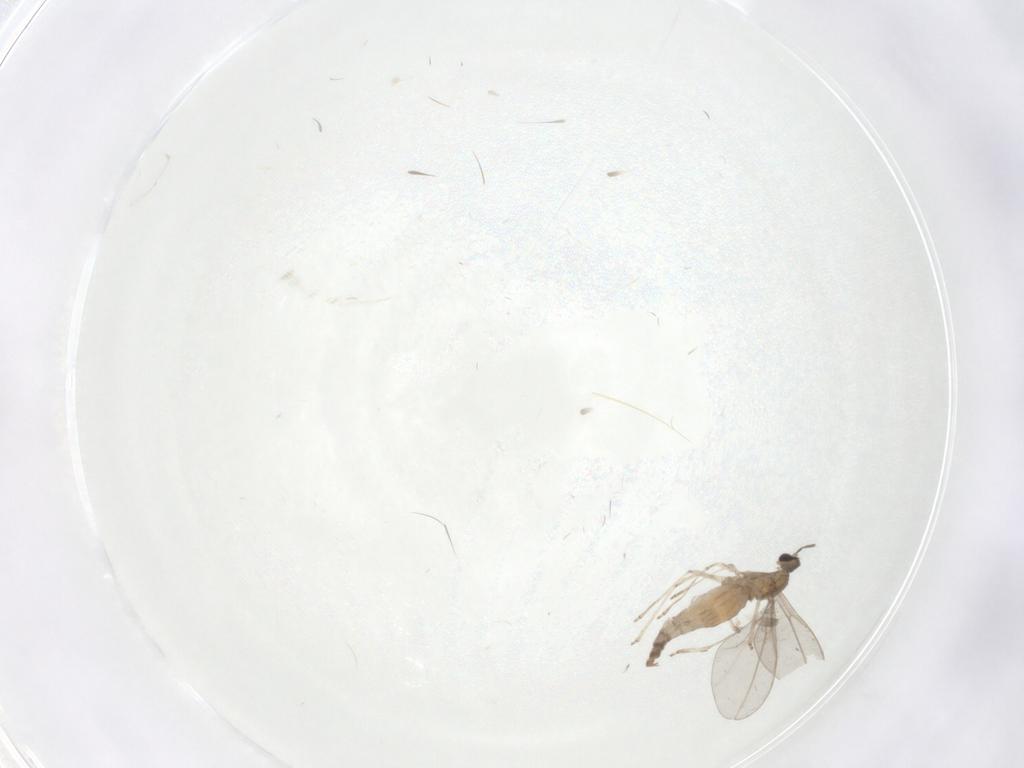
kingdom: Animalia
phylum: Arthropoda
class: Insecta
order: Diptera
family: Cecidomyiidae
